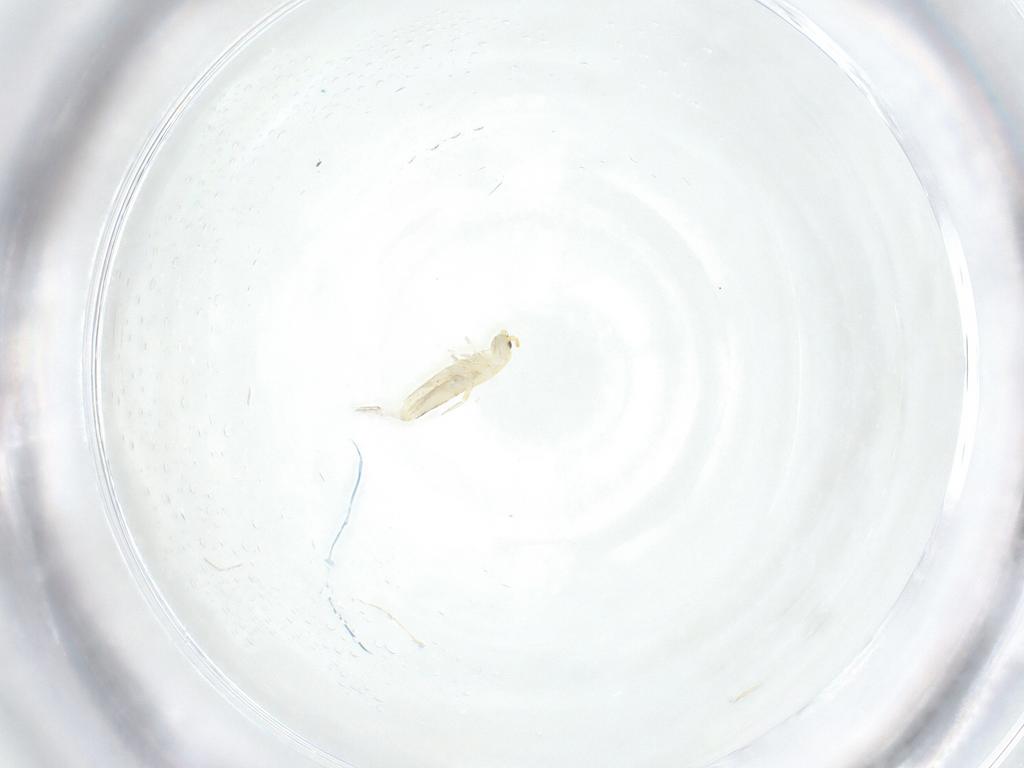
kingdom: Animalia
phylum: Arthropoda
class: Collembola
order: Entomobryomorpha
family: Entomobryidae
